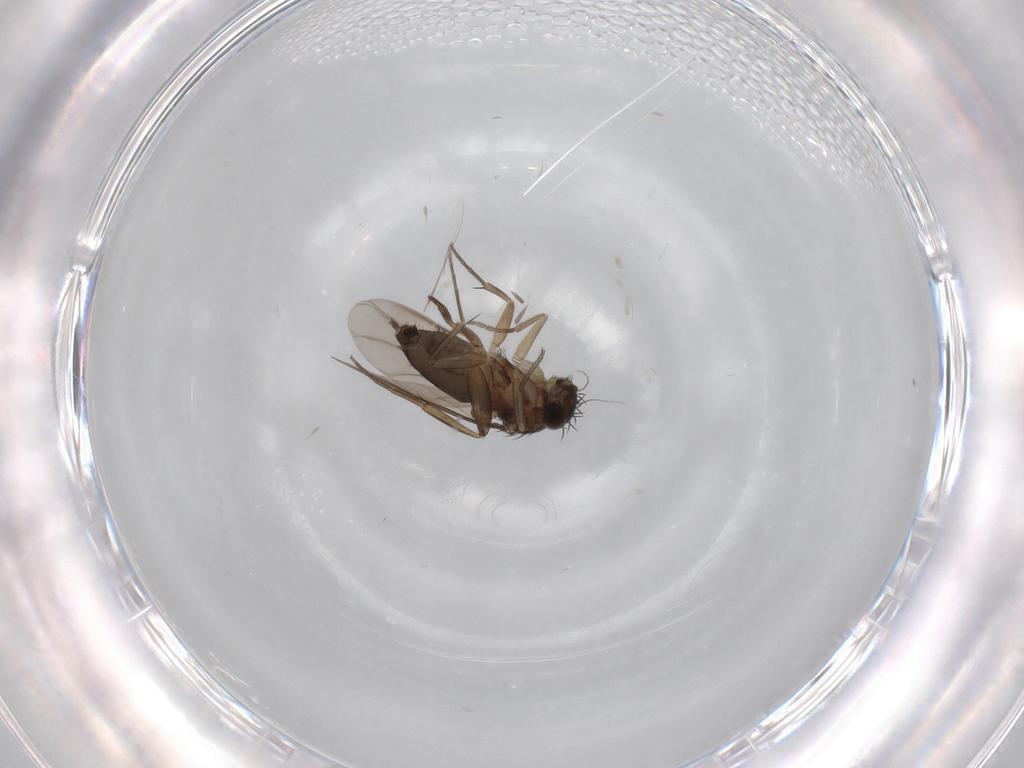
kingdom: Animalia
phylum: Arthropoda
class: Insecta
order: Diptera
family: Phoridae
